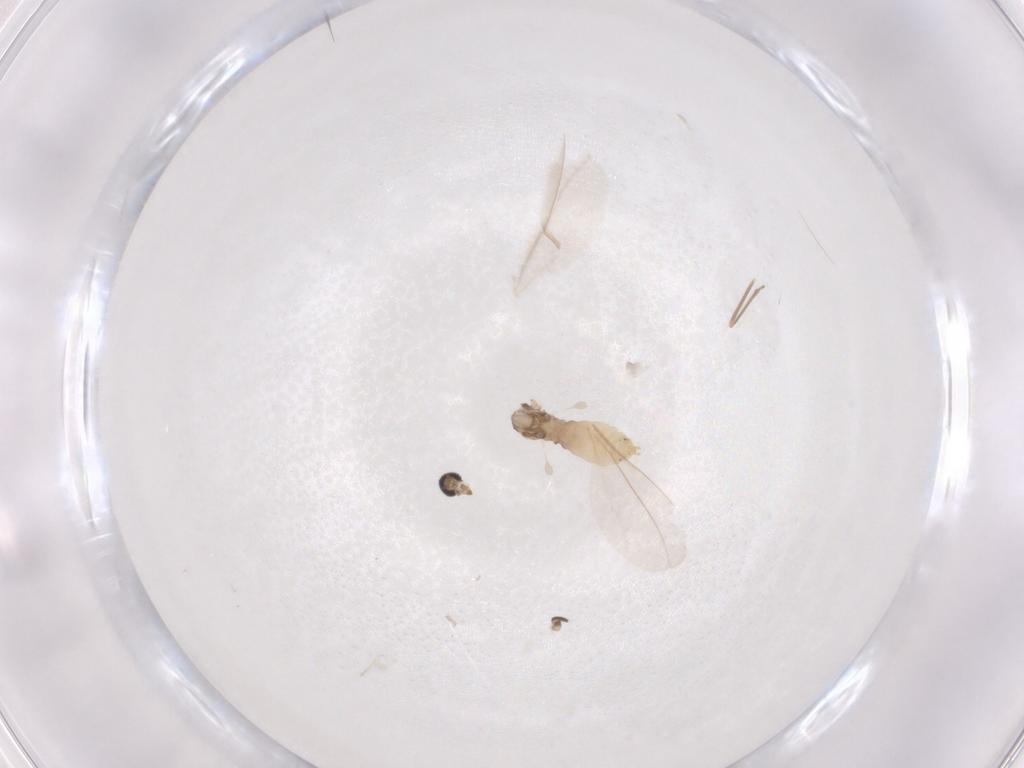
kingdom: Animalia
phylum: Arthropoda
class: Insecta
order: Diptera
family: Cecidomyiidae
